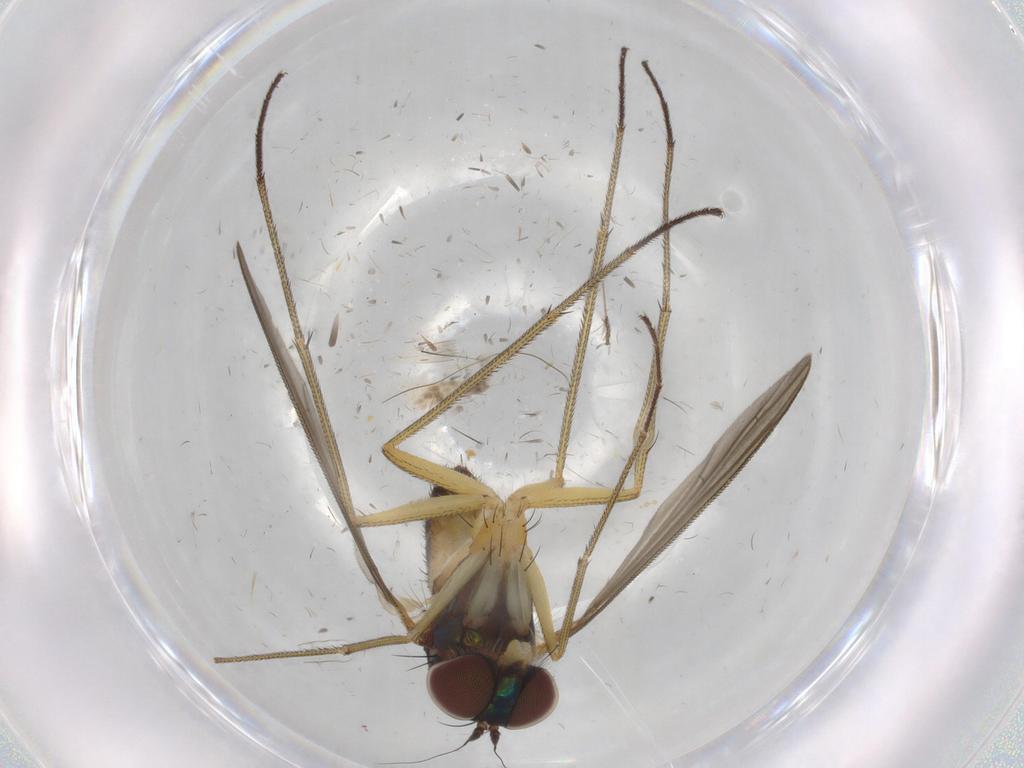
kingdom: Animalia
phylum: Arthropoda
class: Insecta
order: Diptera
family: Dolichopodidae
